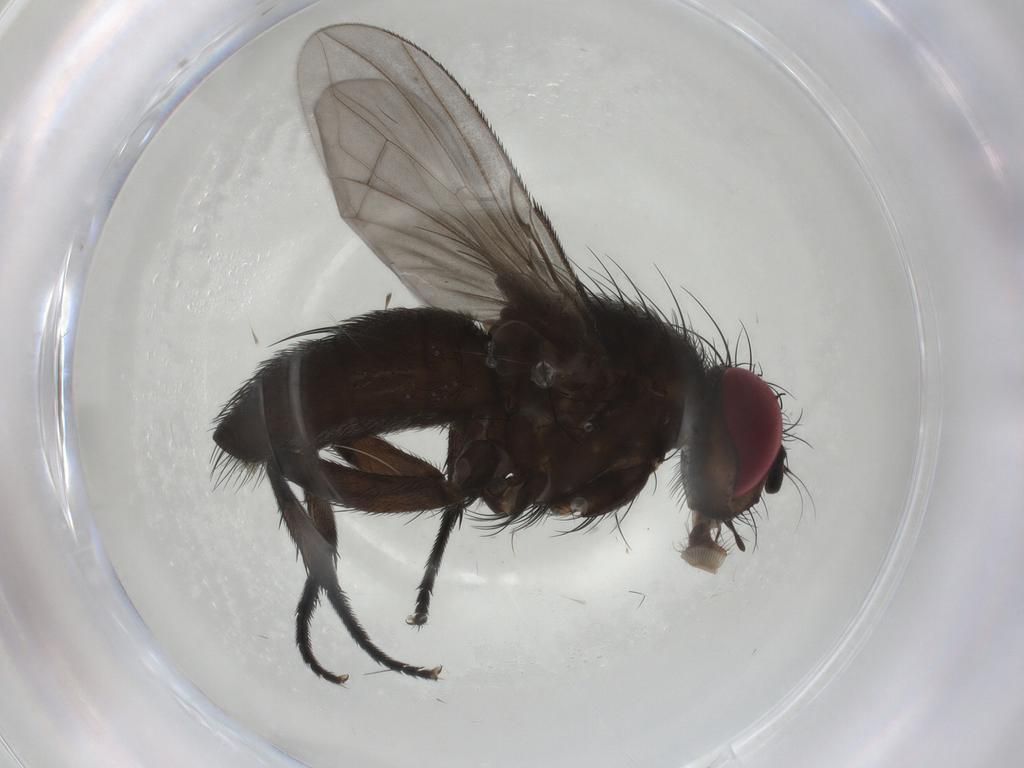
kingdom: Animalia
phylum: Arthropoda
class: Insecta
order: Diptera
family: Calliphoridae
